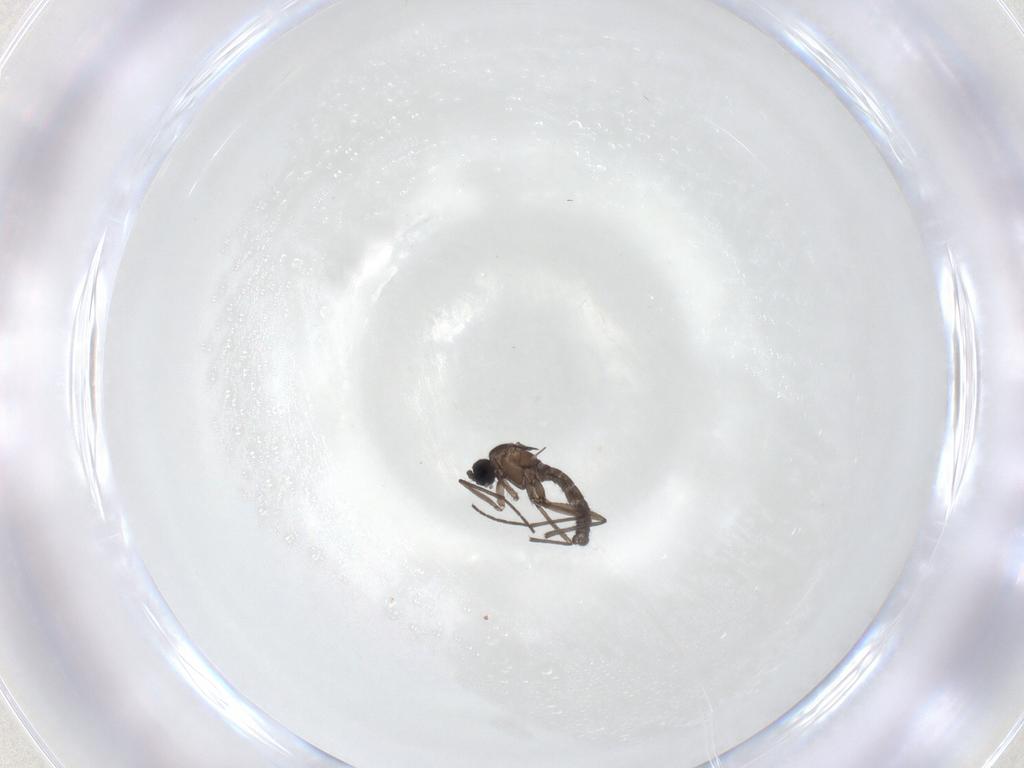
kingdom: Animalia
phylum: Arthropoda
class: Insecta
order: Diptera
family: Sciaridae
